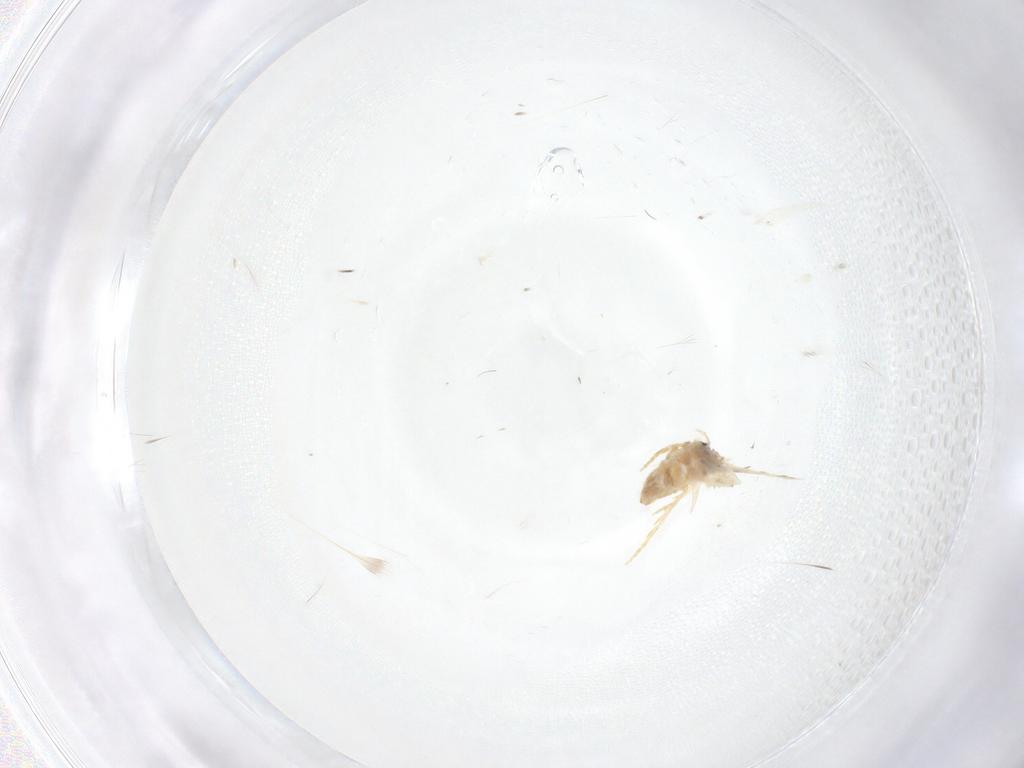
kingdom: Animalia
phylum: Arthropoda
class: Insecta
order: Lepidoptera
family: Crambidae
